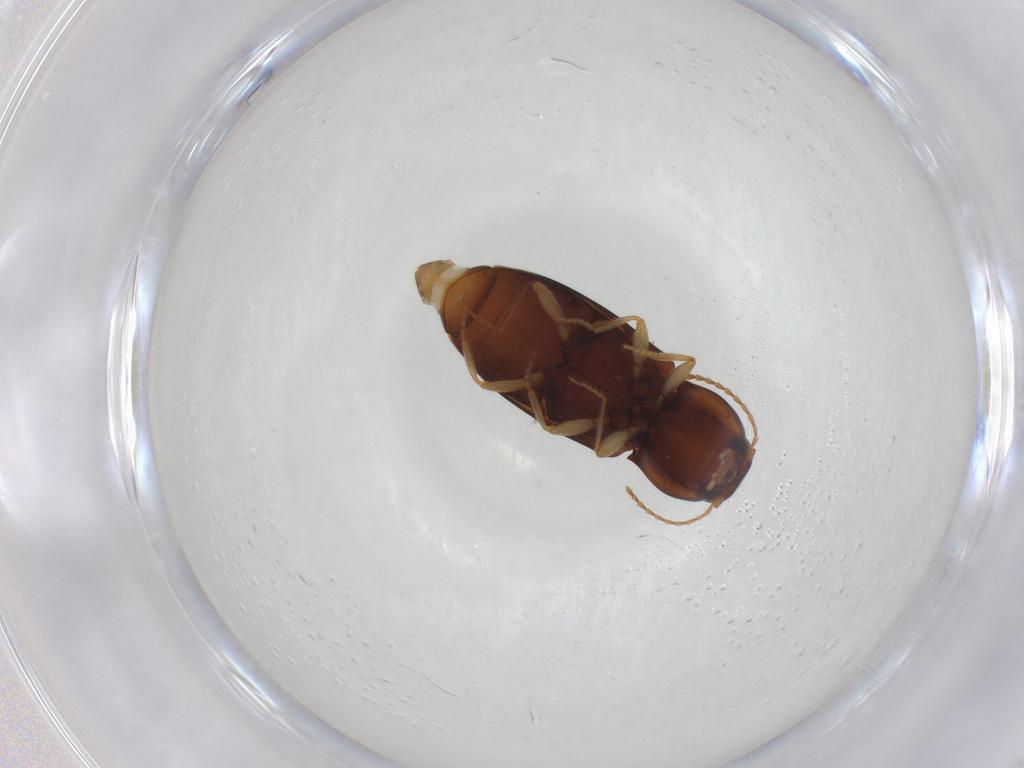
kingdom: Animalia
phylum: Arthropoda
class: Insecta
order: Coleoptera
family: Elateridae
